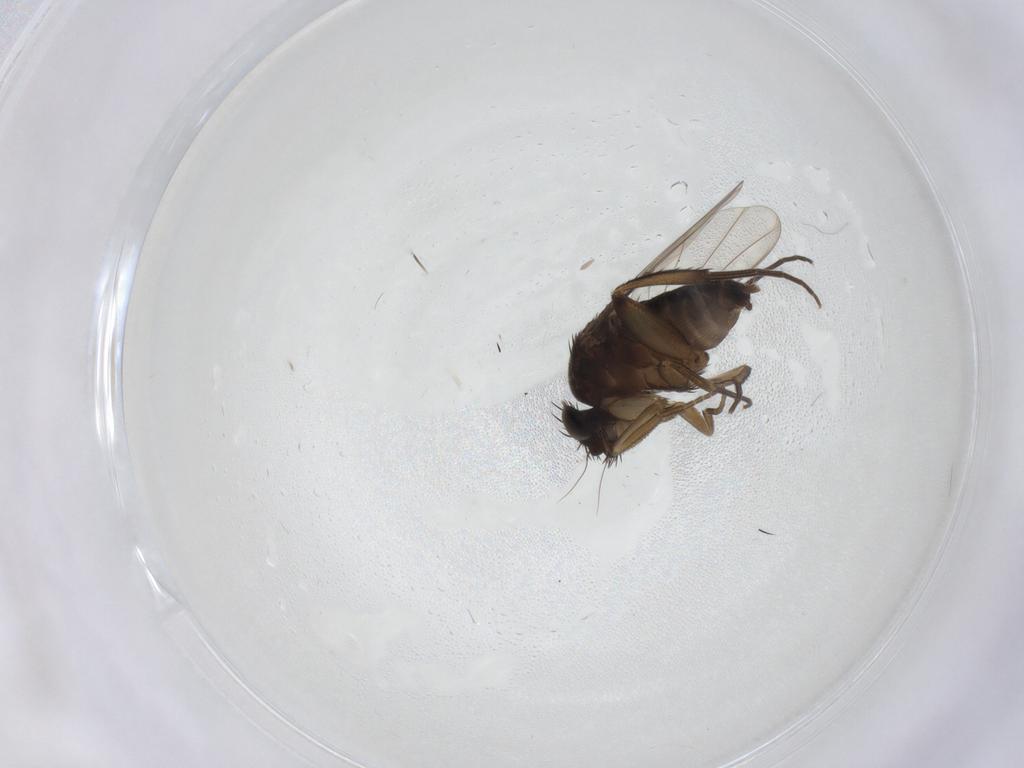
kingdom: Animalia
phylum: Arthropoda
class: Insecta
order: Diptera
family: Phoridae
